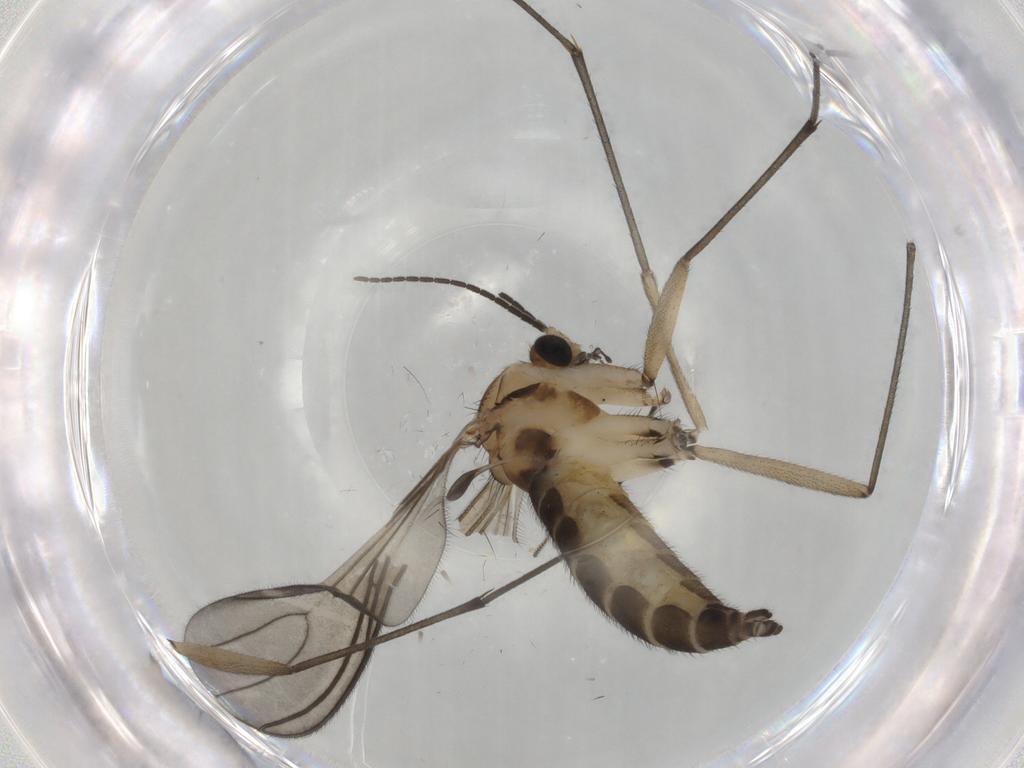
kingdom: Animalia
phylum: Arthropoda
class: Insecta
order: Diptera
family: Sciaridae
